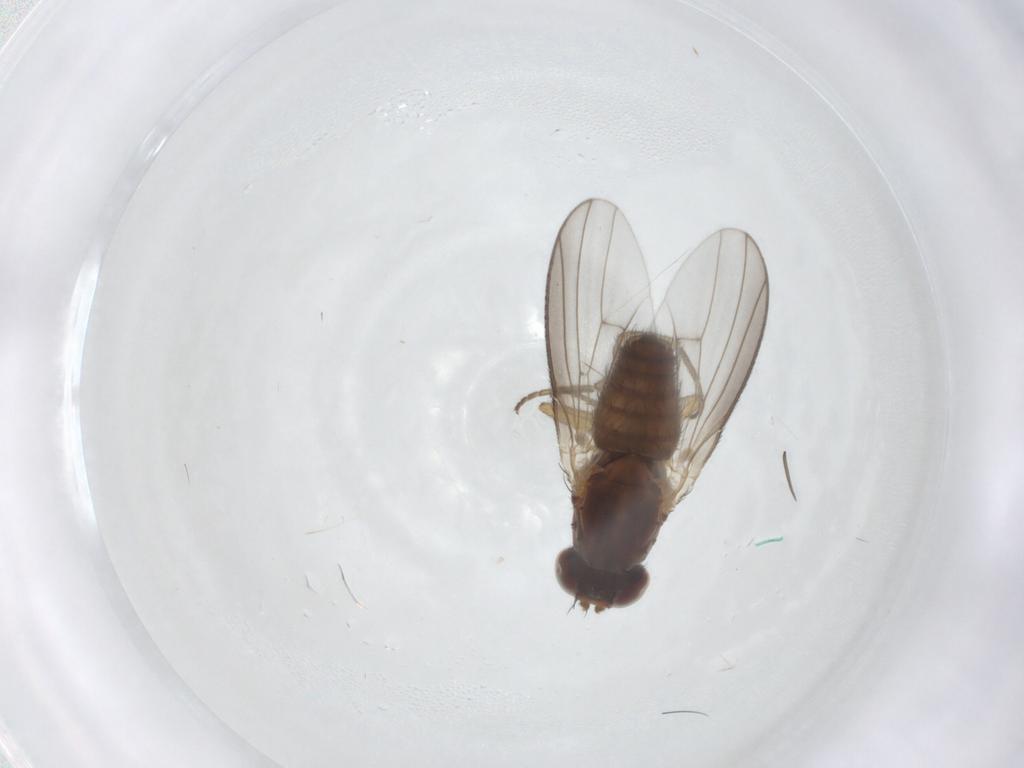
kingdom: Animalia
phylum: Arthropoda
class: Insecta
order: Diptera
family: Heleomyzidae
